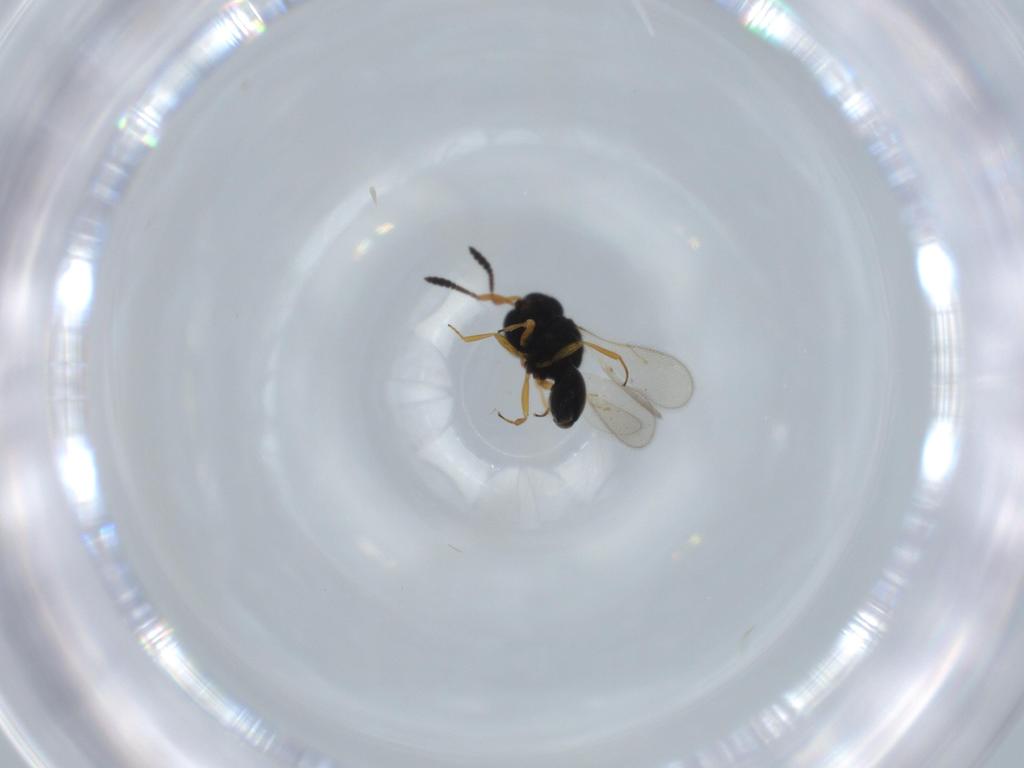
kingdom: Animalia
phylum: Arthropoda
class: Insecta
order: Hymenoptera
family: Scelionidae
